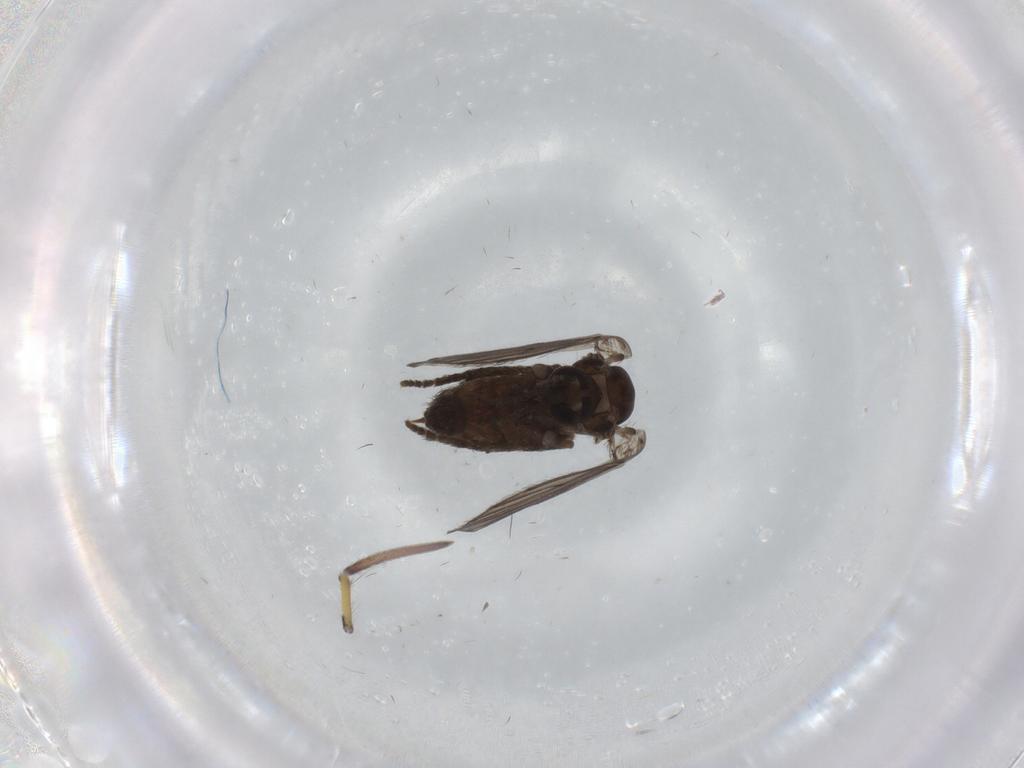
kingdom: Animalia
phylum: Arthropoda
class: Insecta
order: Diptera
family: Psychodidae
